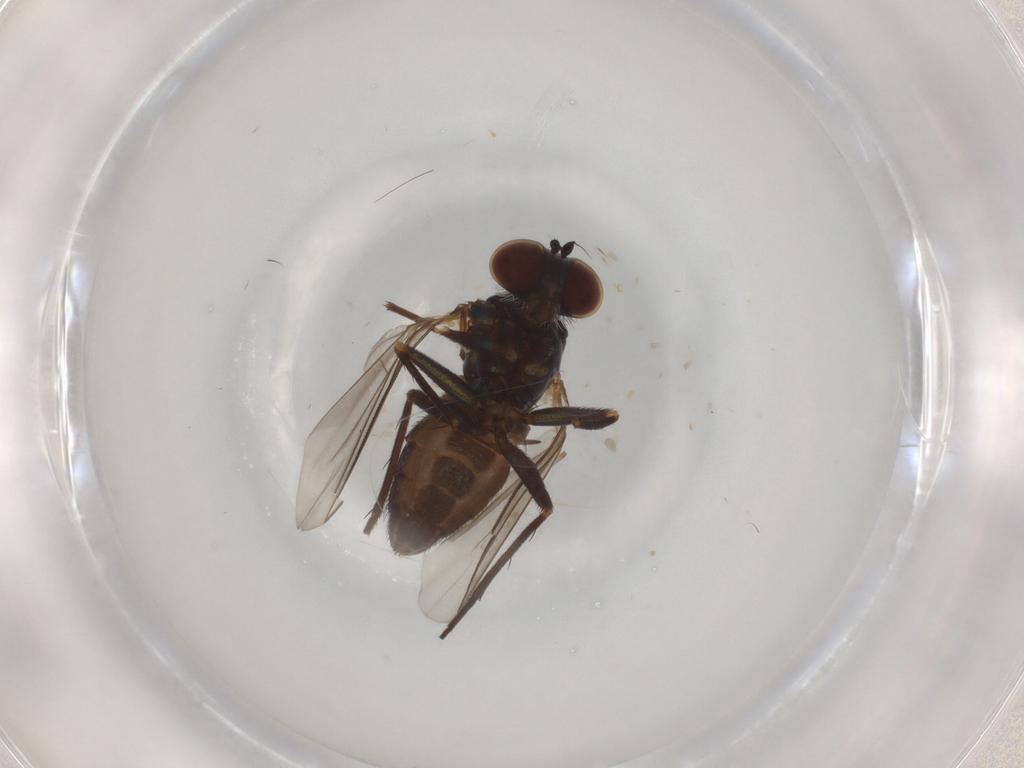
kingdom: Animalia
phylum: Arthropoda
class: Insecta
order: Diptera
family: Dolichopodidae
